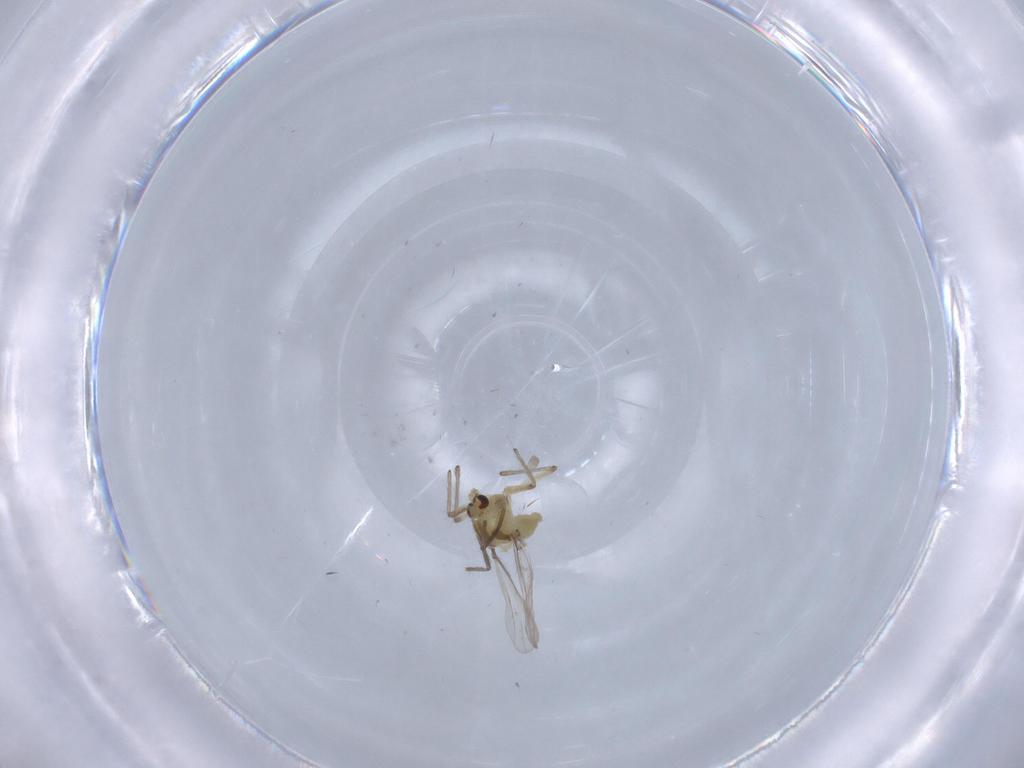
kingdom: Animalia
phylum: Arthropoda
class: Insecta
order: Diptera
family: Chironomidae
